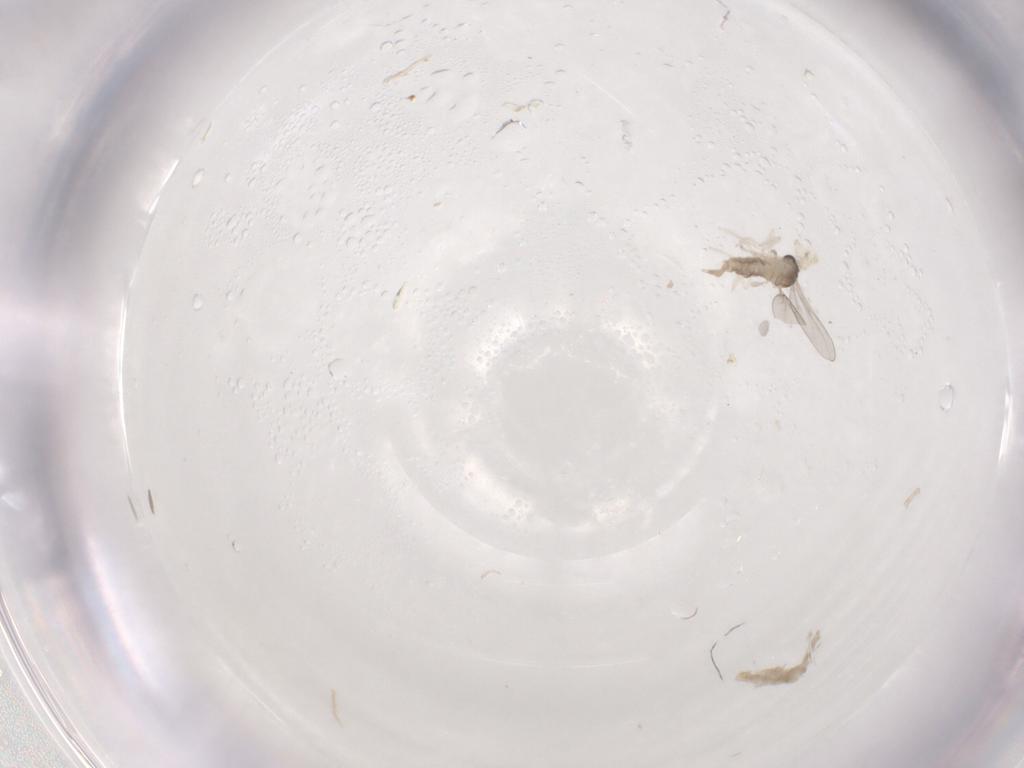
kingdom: Animalia
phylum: Arthropoda
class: Insecta
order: Diptera
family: Cecidomyiidae
